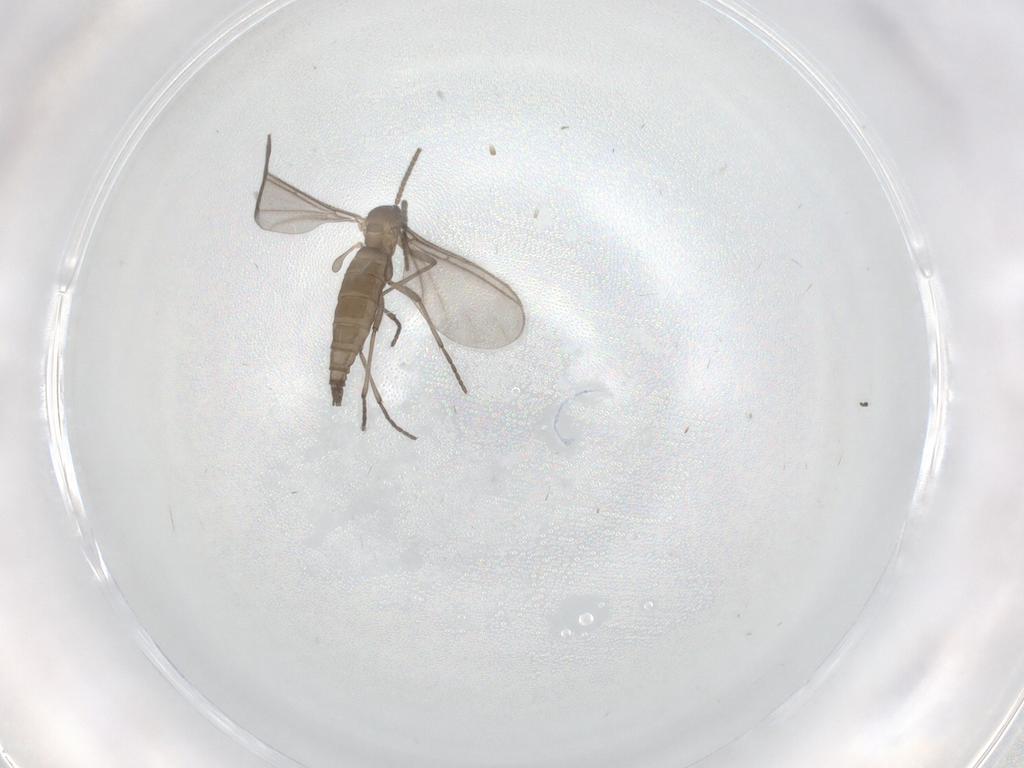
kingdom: Animalia
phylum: Arthropoda
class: Insecta
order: Diptera
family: Sciaridae
